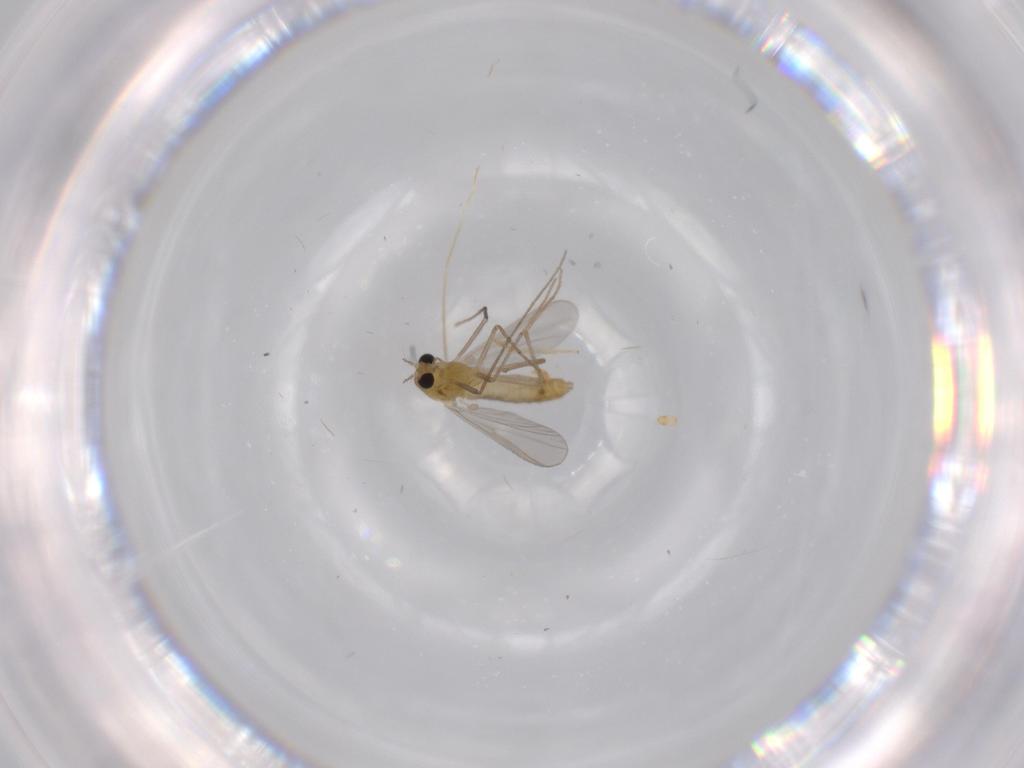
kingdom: Animalia
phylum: Arthropoda
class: Insecta
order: Diptera
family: Chironomidae
